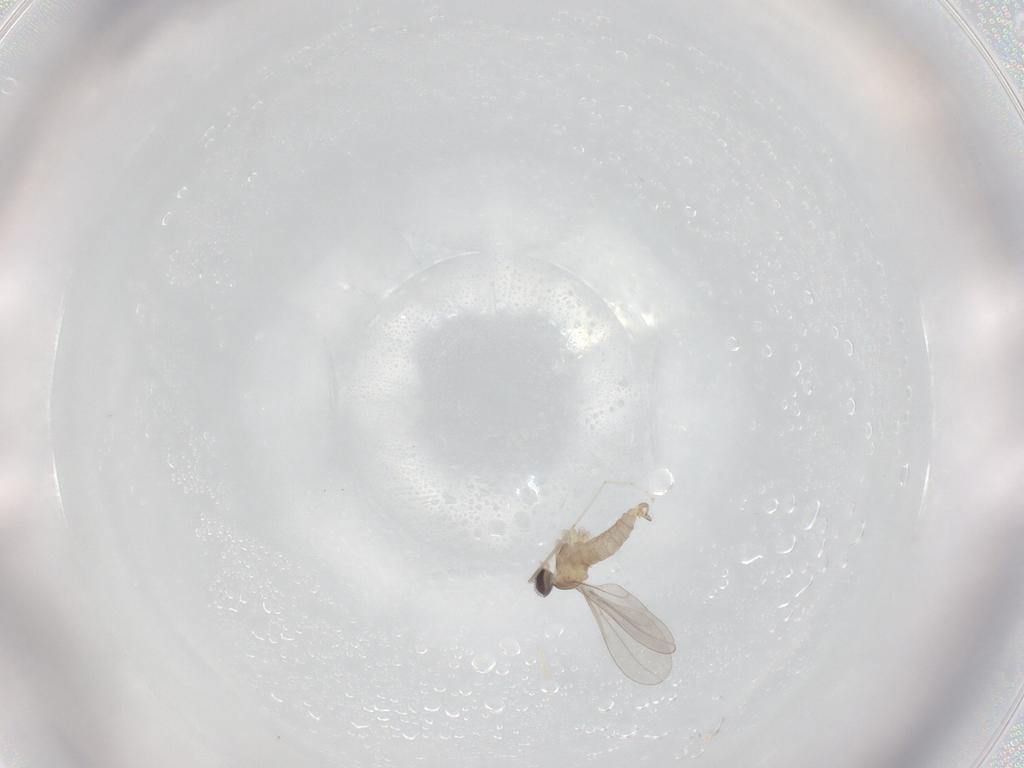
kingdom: Animalia
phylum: Arthropoda
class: Insecta
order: Diptera
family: Cecidomyiidae
